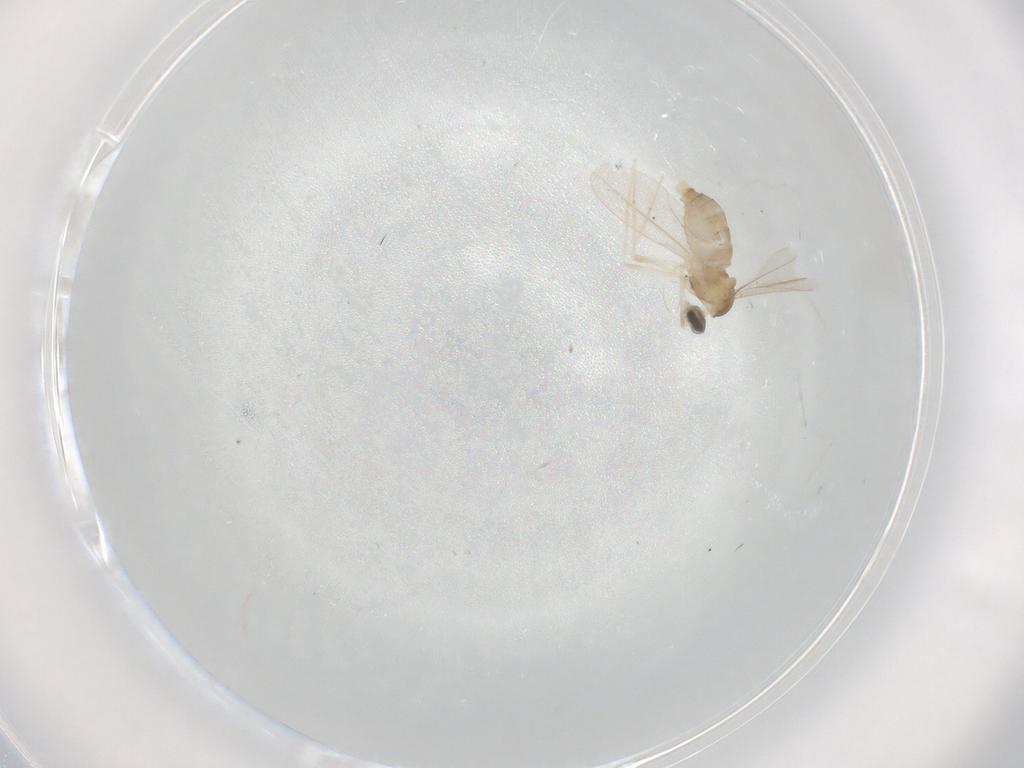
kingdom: Animalia
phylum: Arthropoda
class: Insecta
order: Diptera
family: Cecidomyiidae
